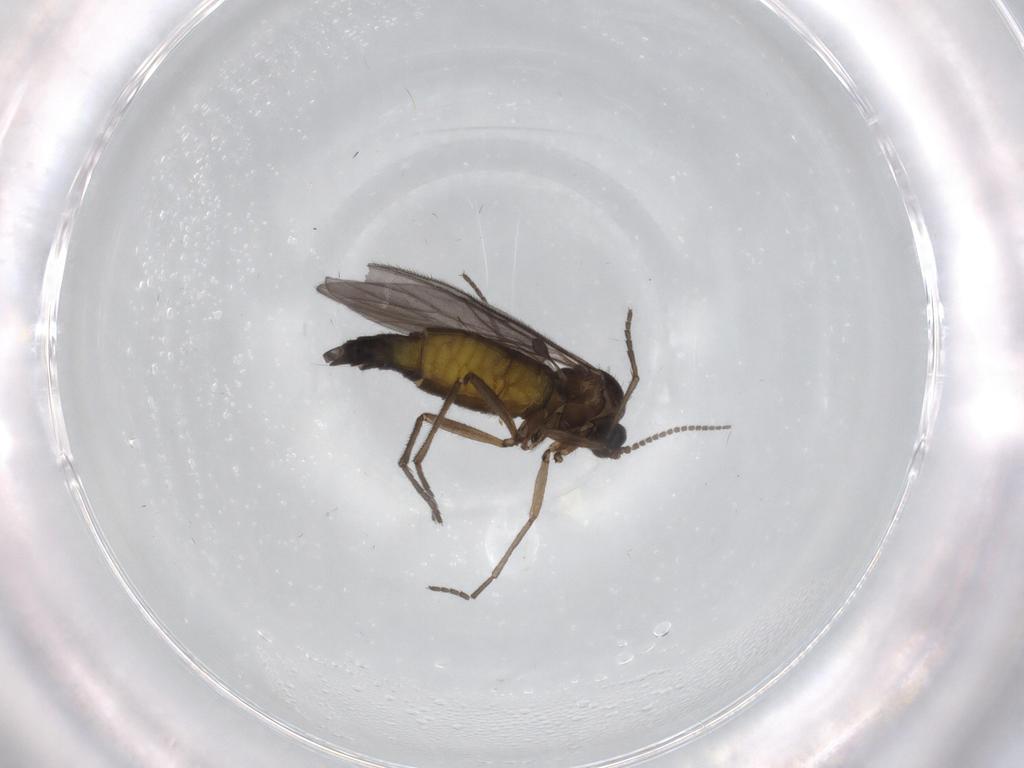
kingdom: Animalia
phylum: Arthropoda
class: Insecta
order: Diptera
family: Sciaridae
